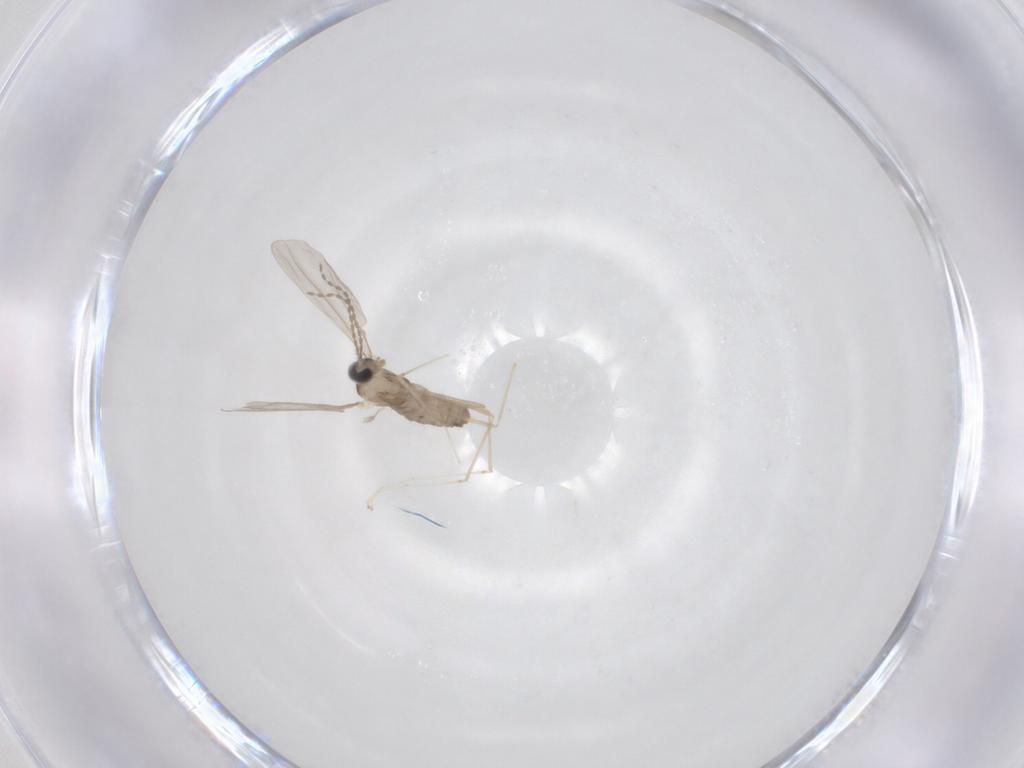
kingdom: Animalia
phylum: Arthropoda
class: Insecta
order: Diptera
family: Cecidomyiidae
